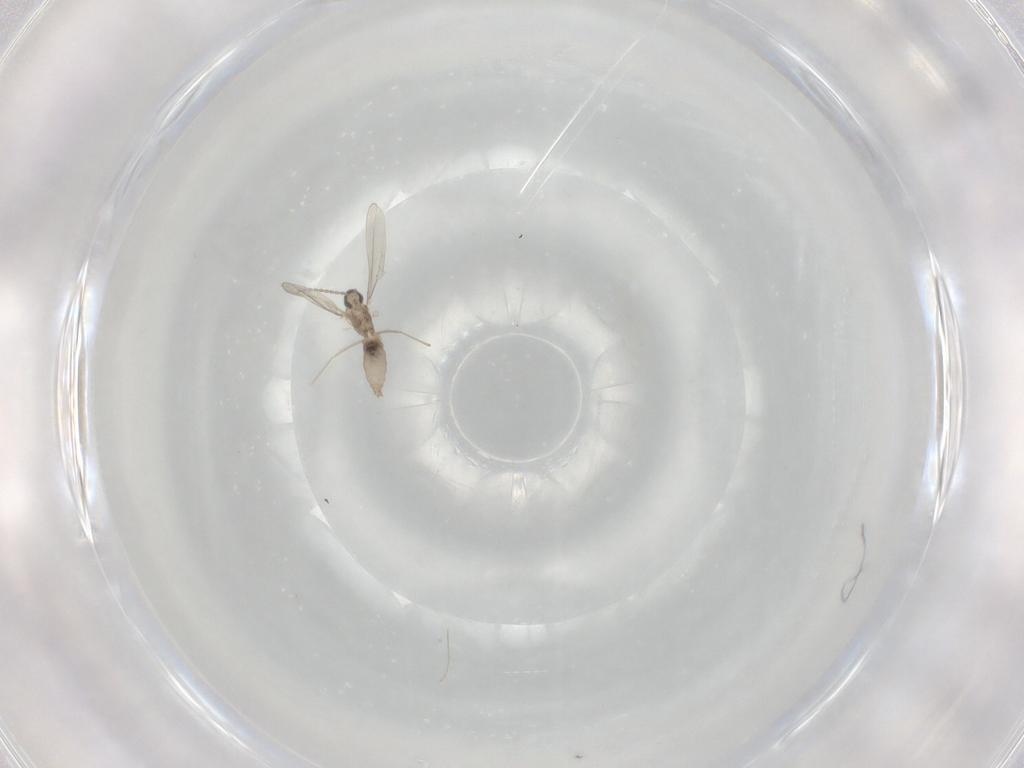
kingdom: Animalia
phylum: Arthropoda
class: Insecta
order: Diptera
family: Cecidomyiidae
